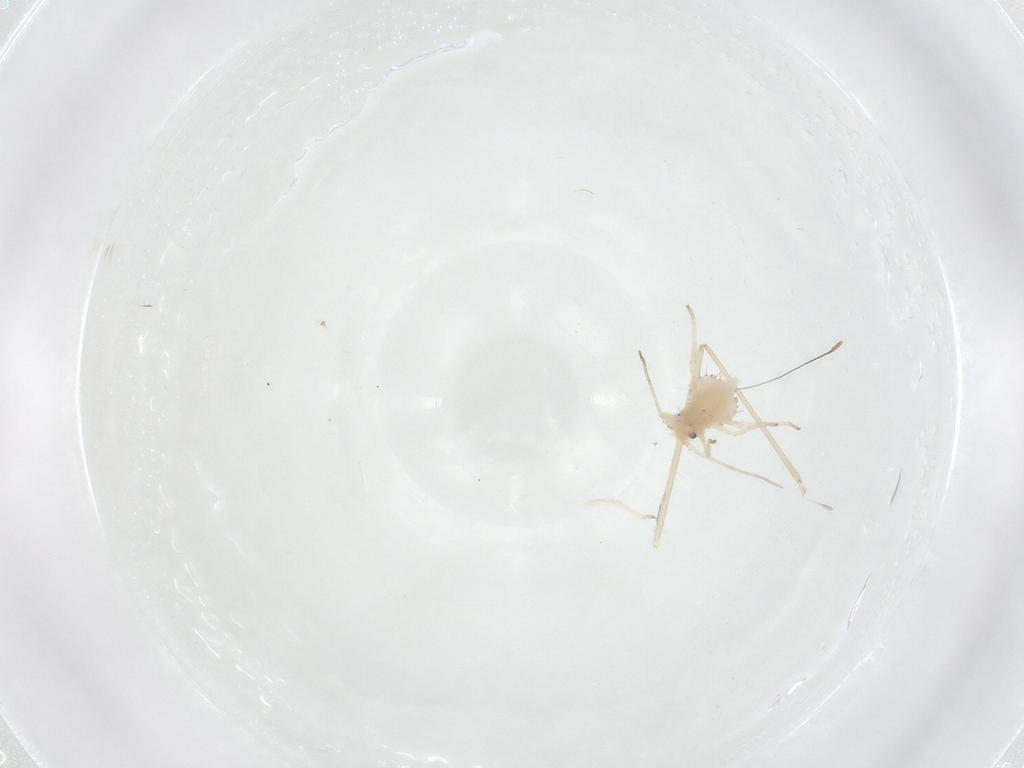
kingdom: Animalia
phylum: Arthropoda
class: Insecta
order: Hemiptera
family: Aphididae
